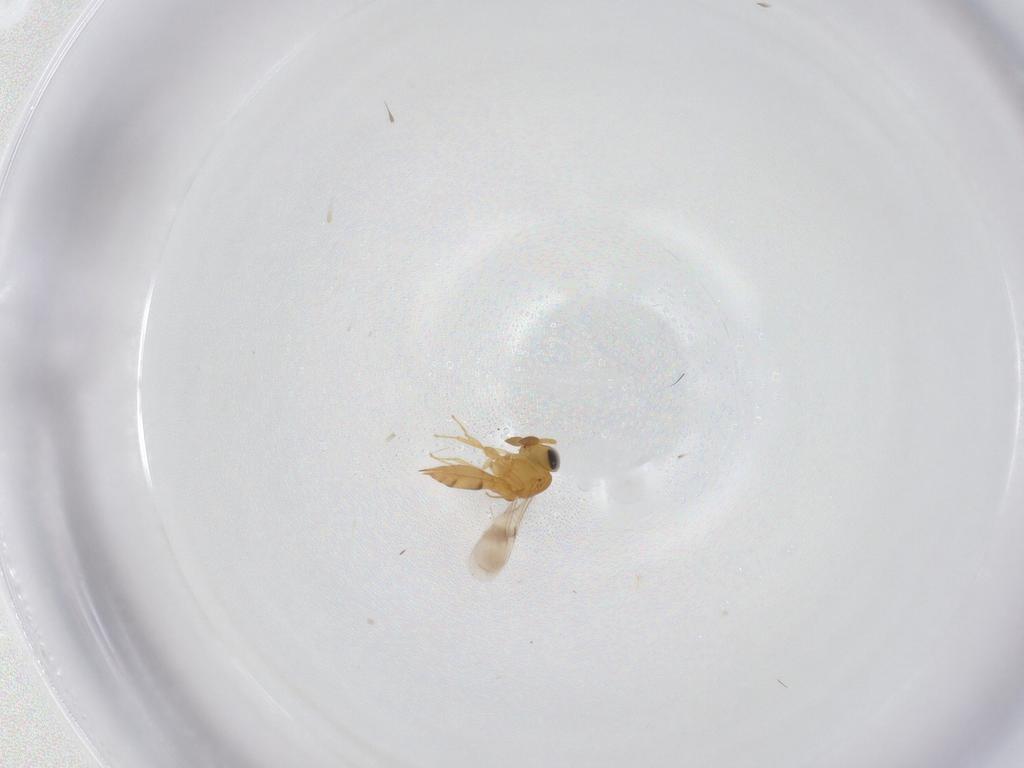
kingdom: Animalia
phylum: Arthropoda
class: Insecta
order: Hymenoptera
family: Scelionidae
